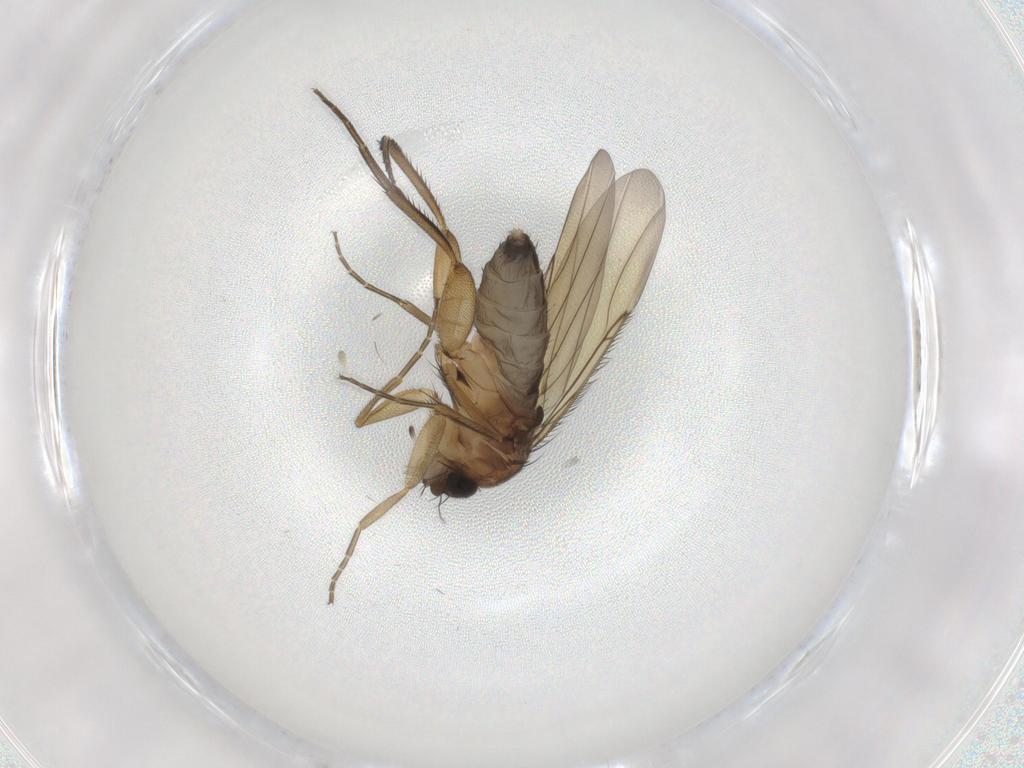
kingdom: Animalia
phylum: Arthropoda
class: Insecta
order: Diptera
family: Phoridae
